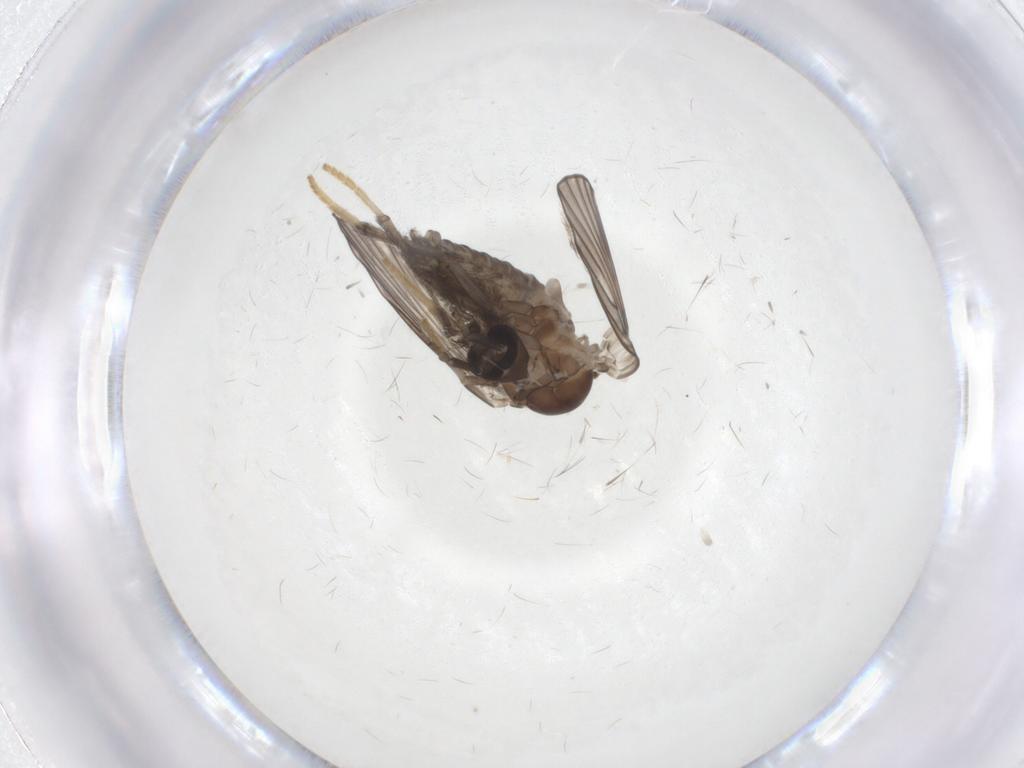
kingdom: Animalia
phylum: Arthropoda
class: Insecta
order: Diptera
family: Psychodidae
